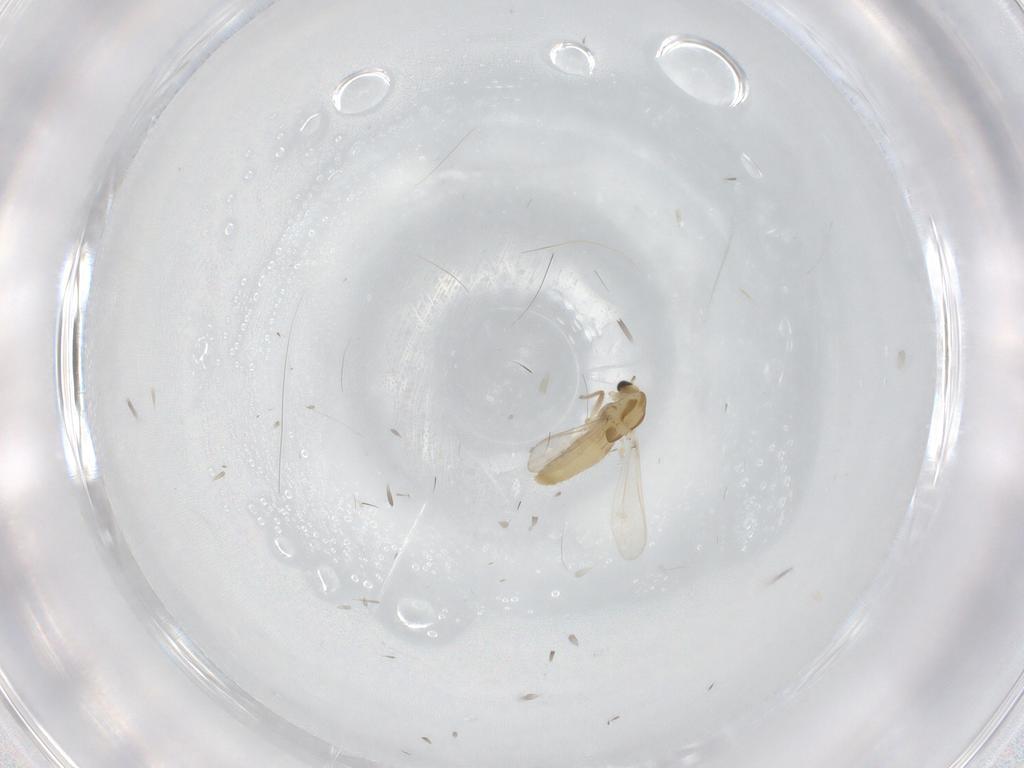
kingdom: Animalia
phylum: Arthropoda
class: Insecta
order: Diptera
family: Chironomidae
